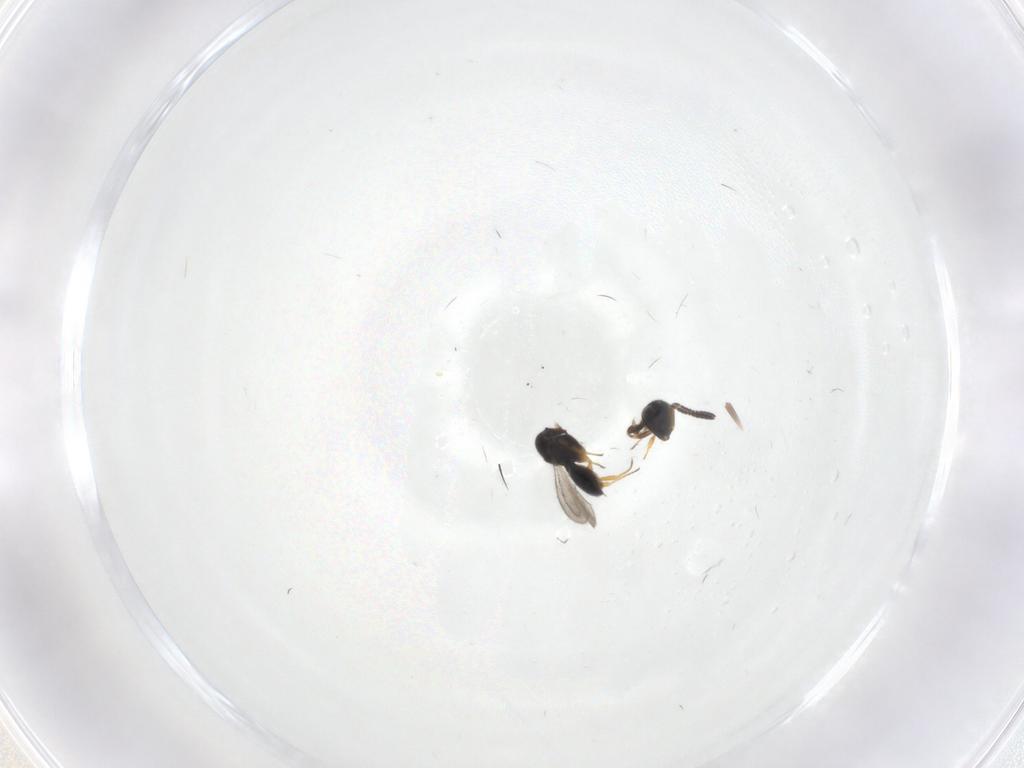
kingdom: Animalia
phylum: Arthropoda
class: Insecta
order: Hymenoptera
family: Scelionidae
